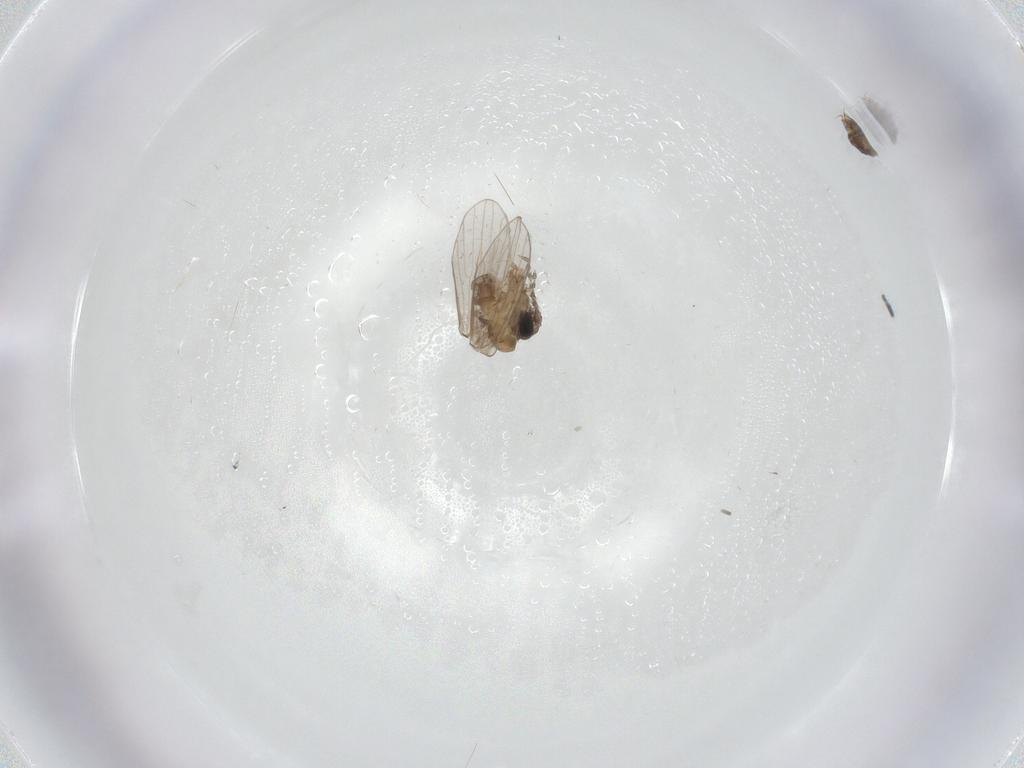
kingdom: Animalia
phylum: Arthropoda
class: Insecta
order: Diptera
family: Psychodidae
